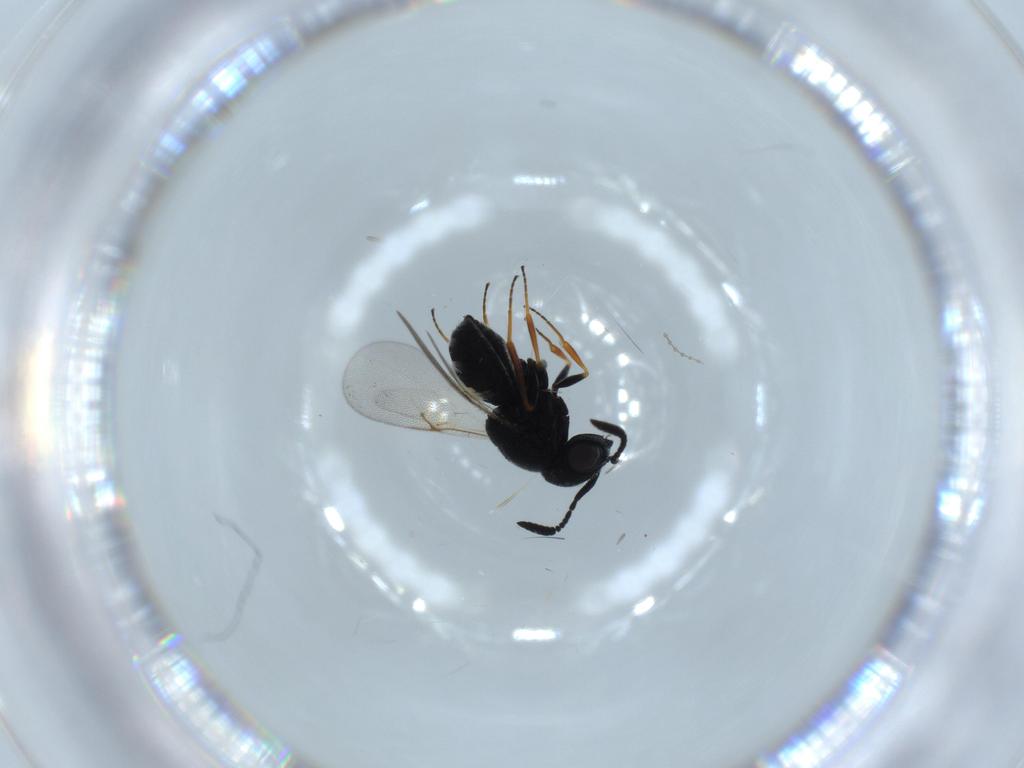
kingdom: Animalia
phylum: Arthropoda
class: Insecta
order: Hymenoptera
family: Scelionidae
